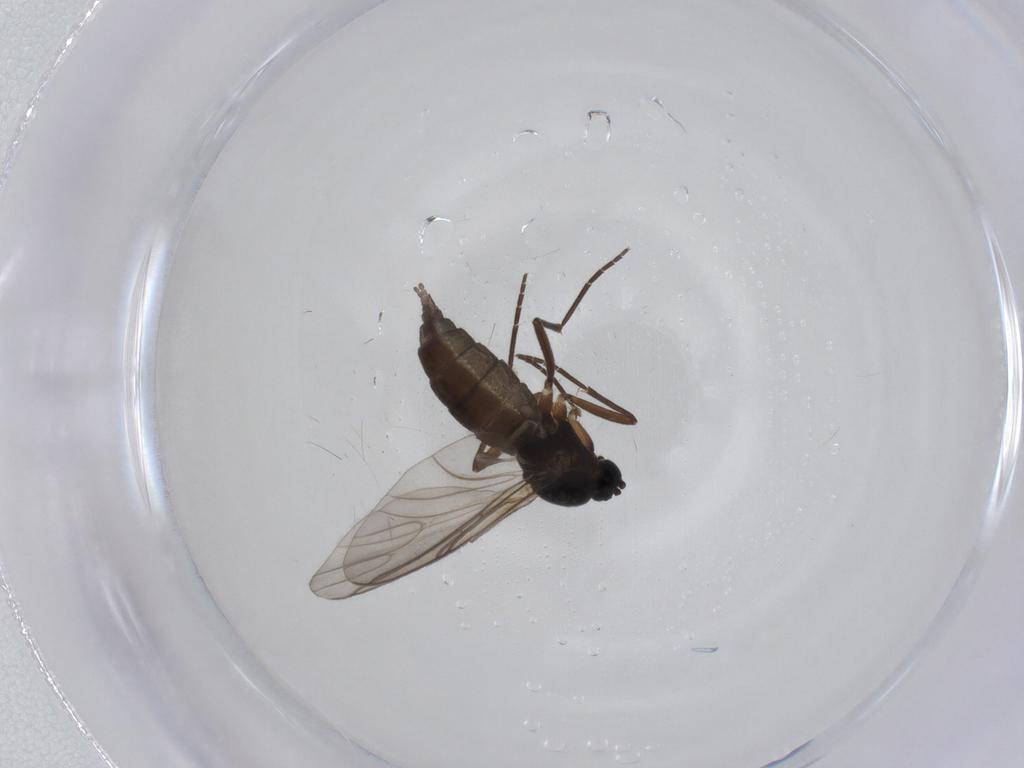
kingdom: Animalia
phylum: Arthropoda
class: Insecta
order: Diptera
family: Sciaridae
